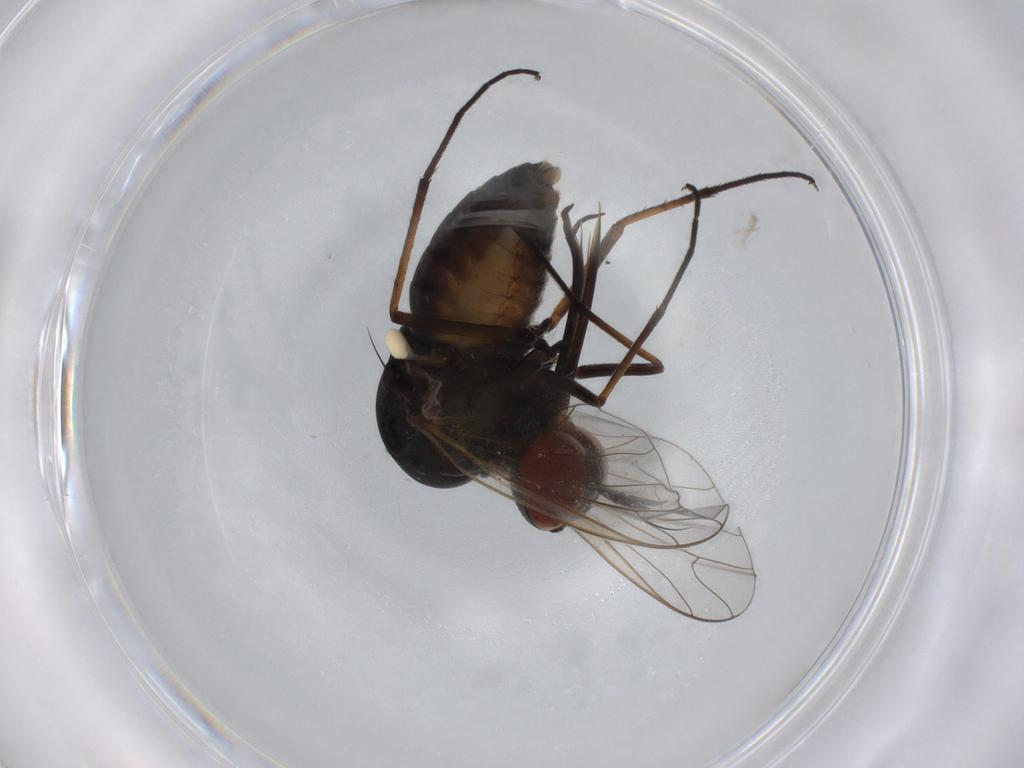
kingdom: Animalia
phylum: Arthropoda
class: Insecta
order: Diptera
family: Bombyliidae
